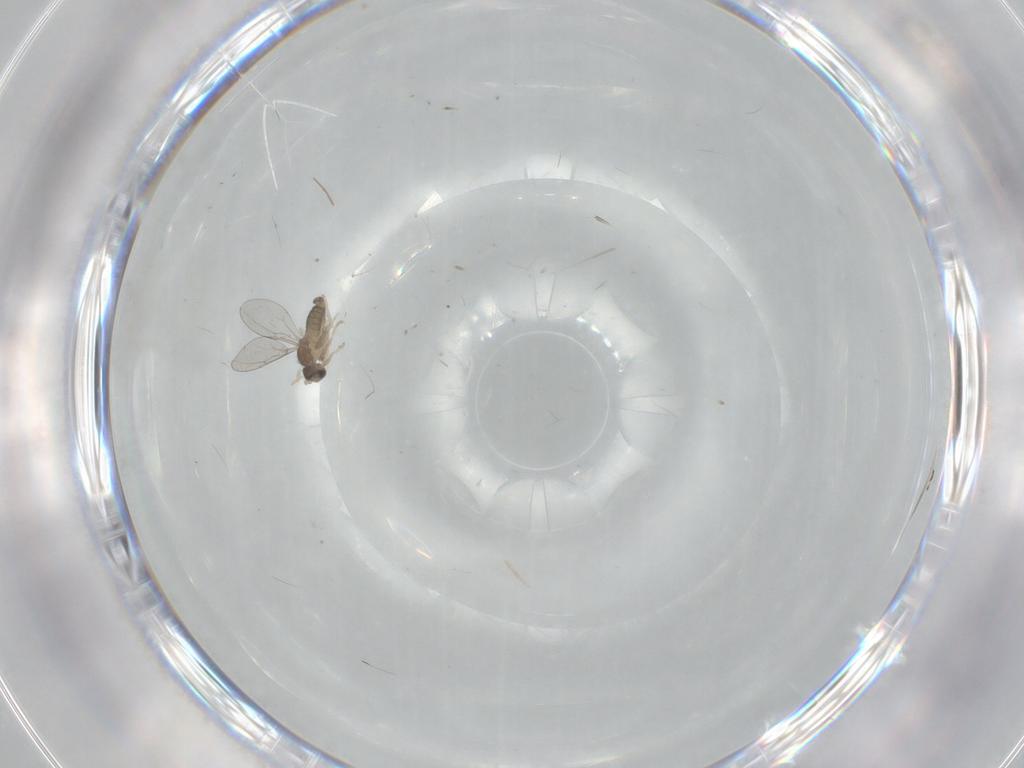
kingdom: Animalia
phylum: Arthropoda
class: Insecta
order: Diptera
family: Cecidomyiidae
